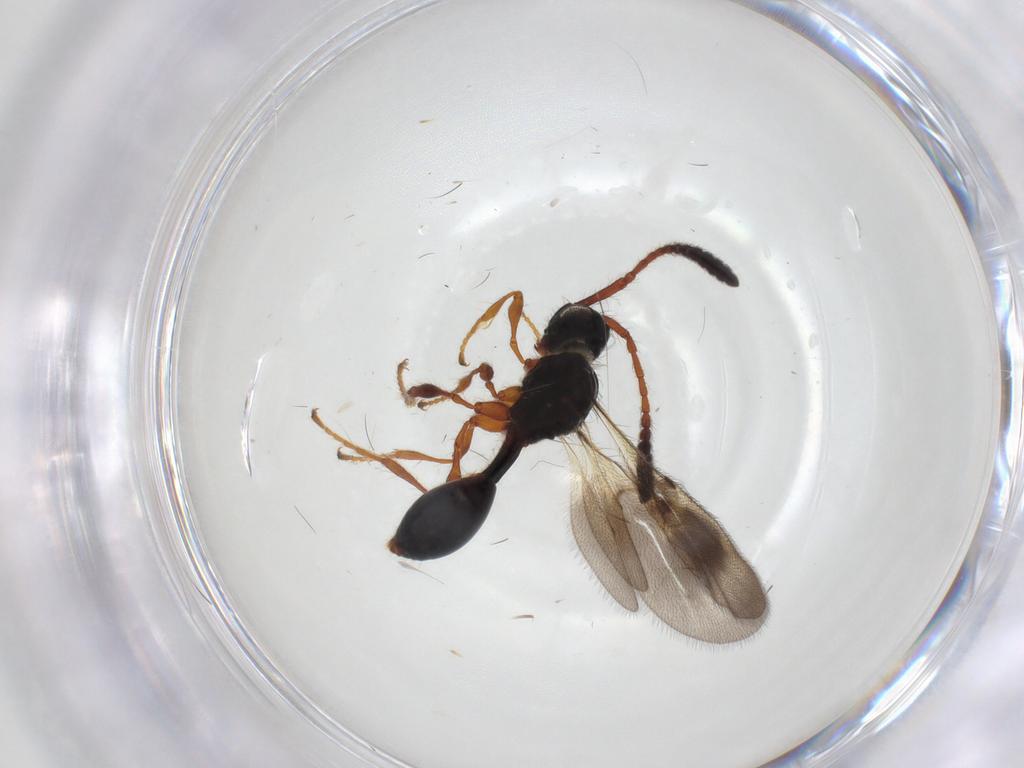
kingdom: Animalia
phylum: Arthropoda
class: Insecta
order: Hymenoptera
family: Diapriidae
